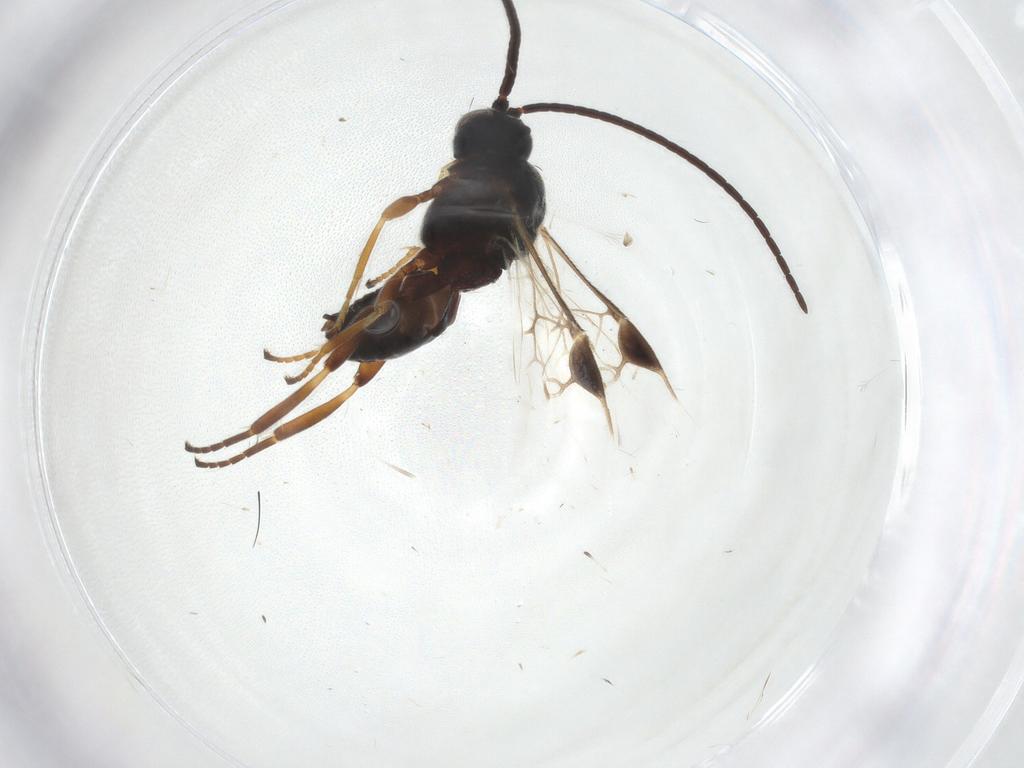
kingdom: Animalia
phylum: Arthropoda
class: Insecta
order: Hymenoptera
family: Braconidae
